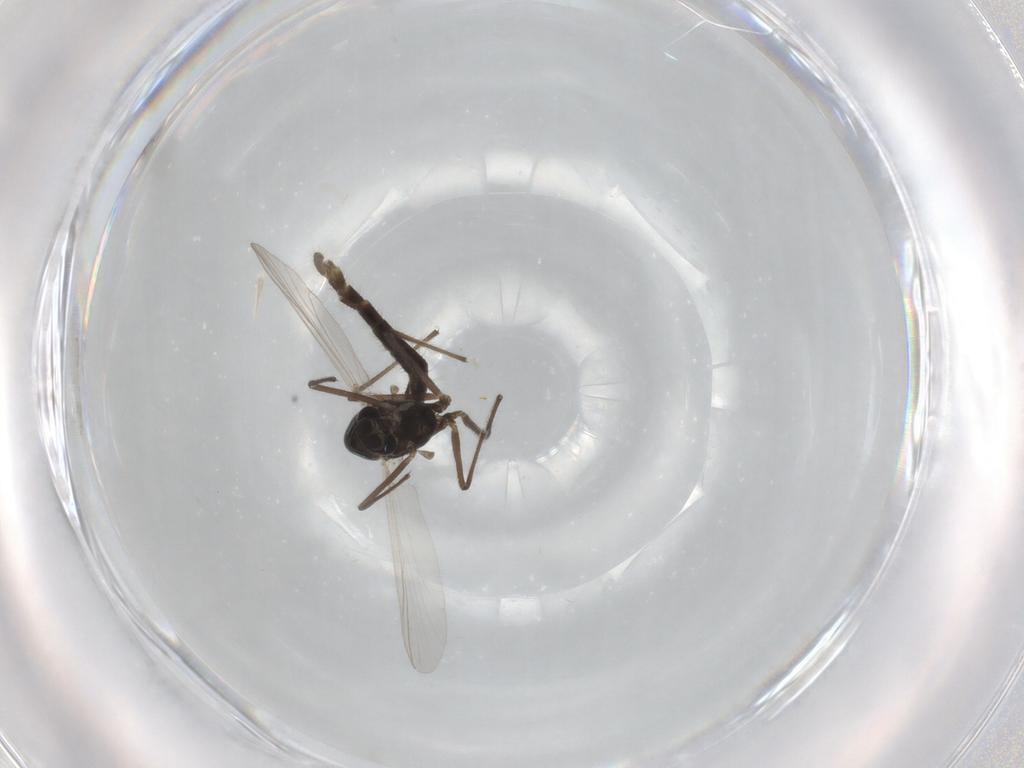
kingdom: Animalia
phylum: Arthropoda
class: Insecta
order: Diptera
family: Chironomidae
